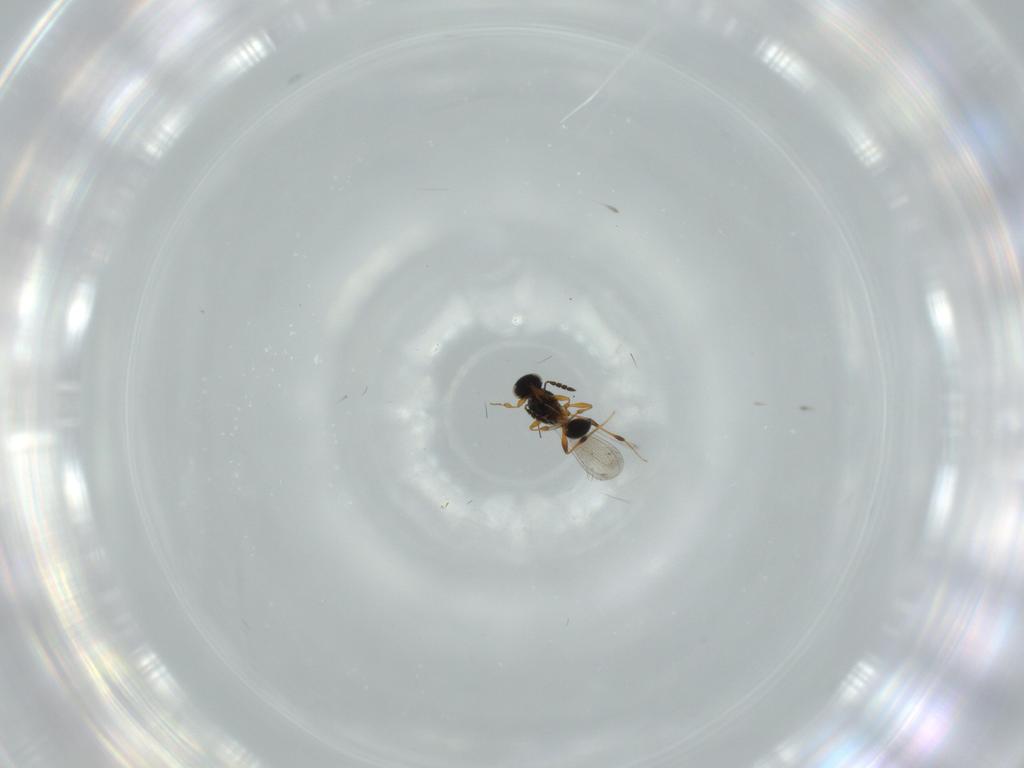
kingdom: Animalia
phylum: Arthropoda
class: Insecta
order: Hymenoptera
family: Platygastridae
